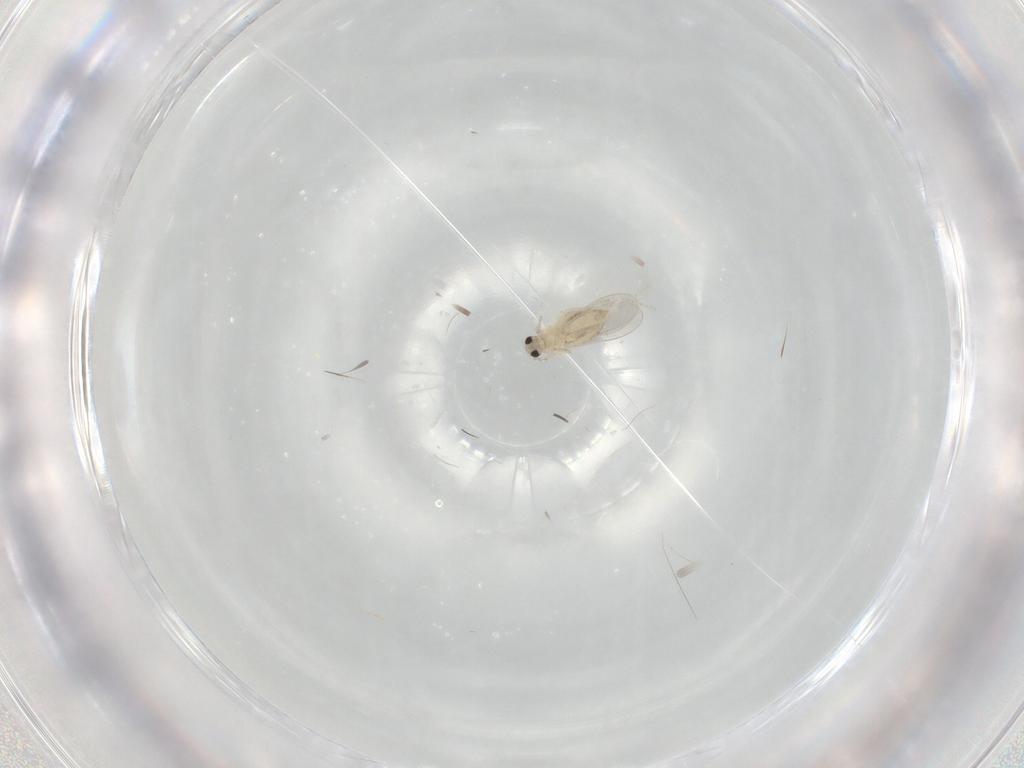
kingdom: Animalia
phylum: Arthropoda
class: Insecta
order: Diptera
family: Cecidomyiidae
